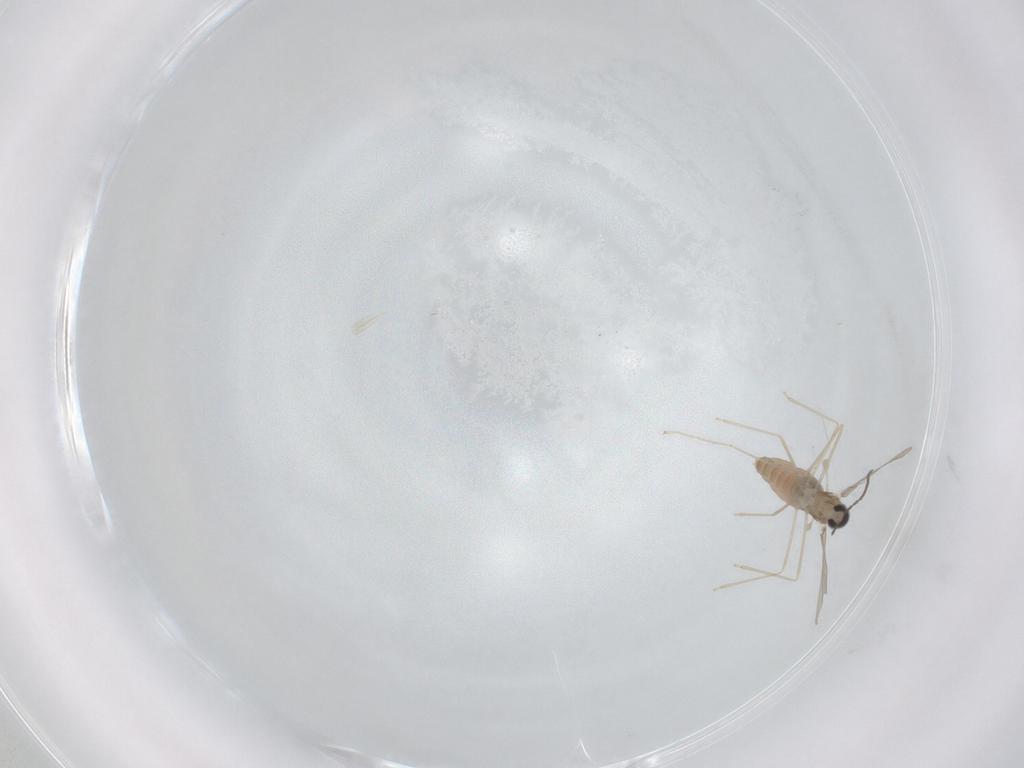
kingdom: Animalia
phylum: Arthropoda
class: Insecta
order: Diptera
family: Cecidomyiidae
